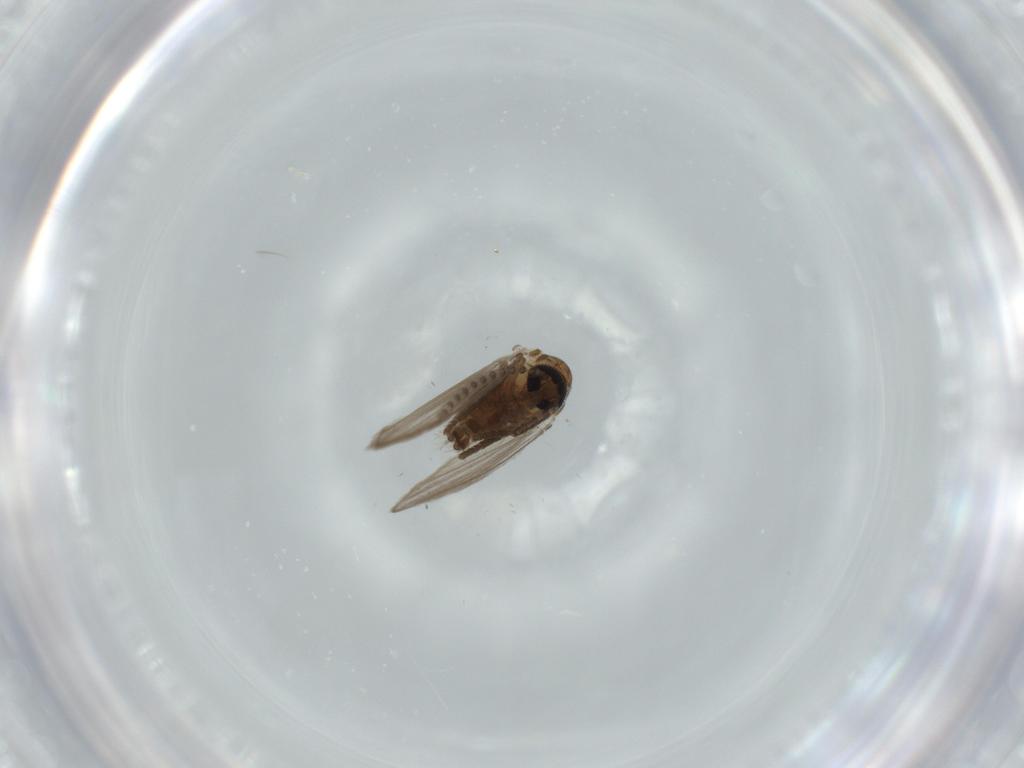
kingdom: Animalia
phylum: Arthropoda
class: Insecta
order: Diptera
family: Psychodidae
